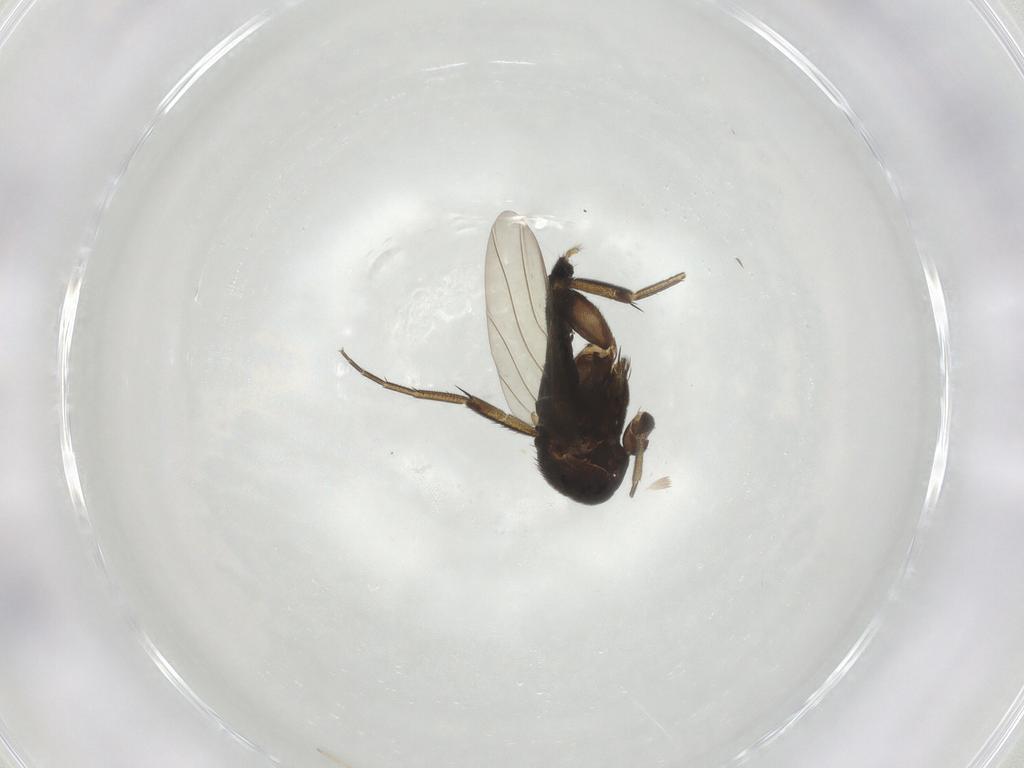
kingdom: Animalia
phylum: Arthropoda
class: Insecta
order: Diptera
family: Phoridae
